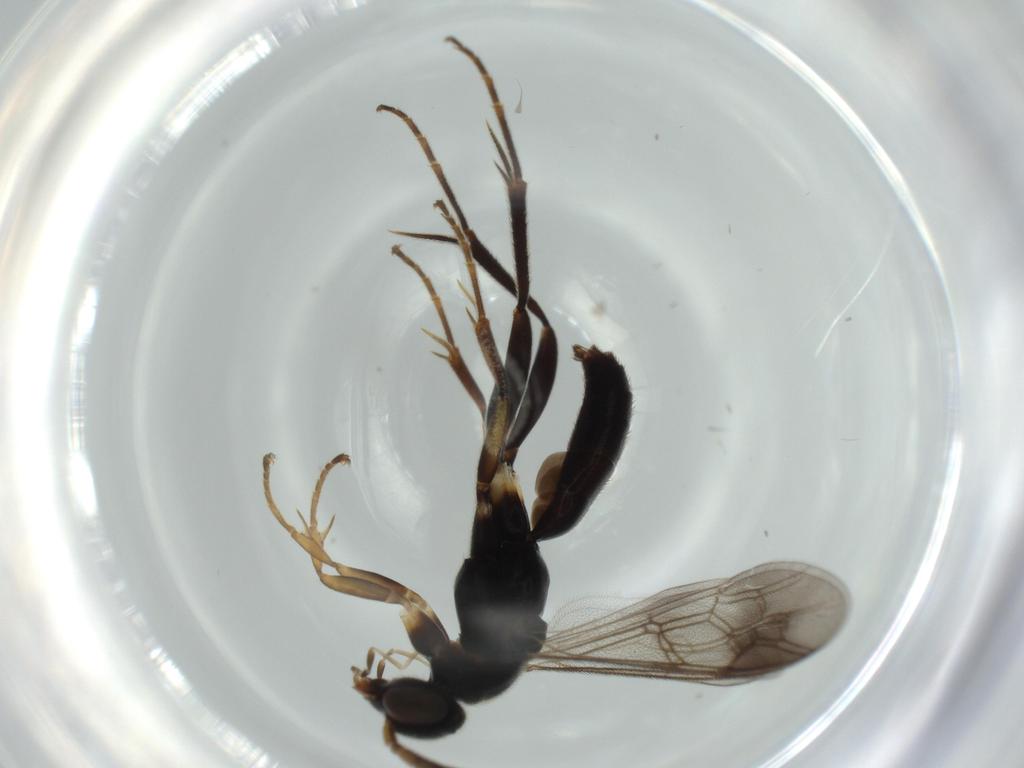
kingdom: Animalia
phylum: Arthropoda
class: Insecta
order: Hymenoptera
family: Pompilidae
